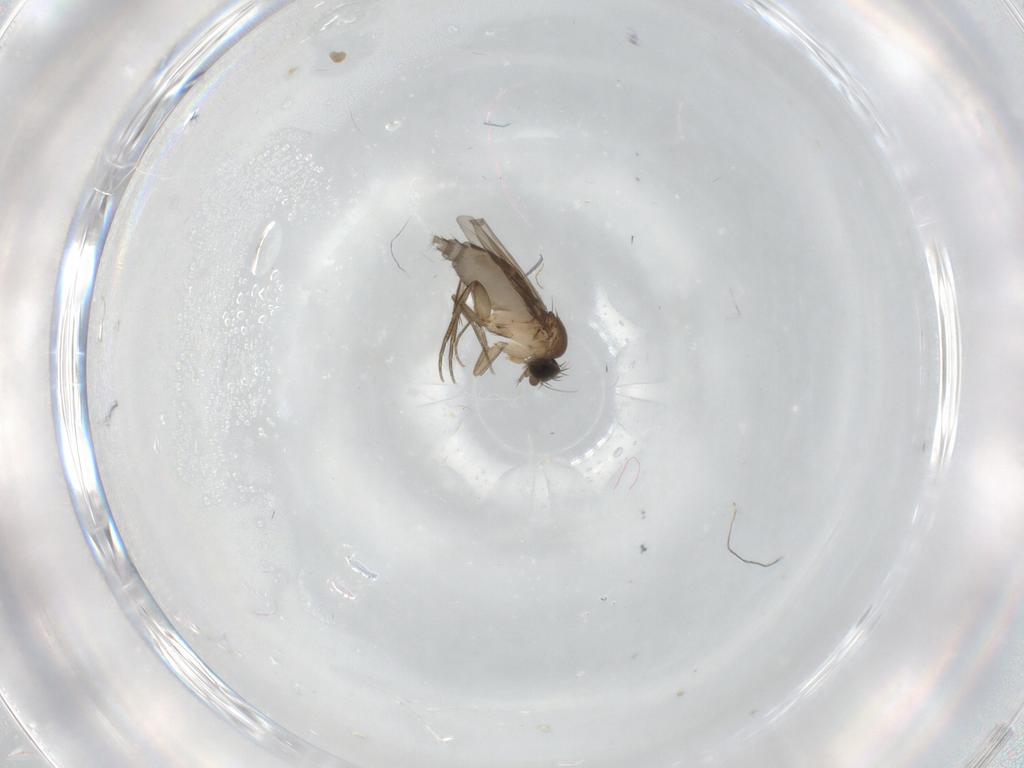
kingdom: Animalia
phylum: Arthropoda
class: Insecta
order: Diptera
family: Phoridae
